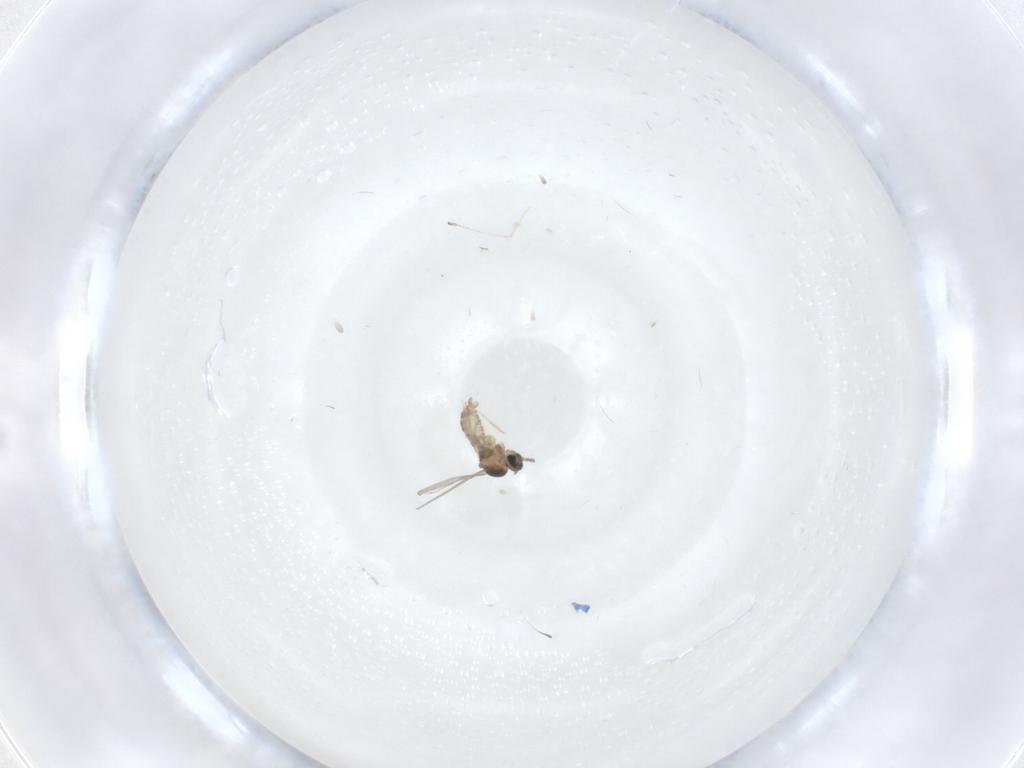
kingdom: Animalia
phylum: Arthropoda
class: Insecta
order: Diptera
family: Cecidomyiidae
